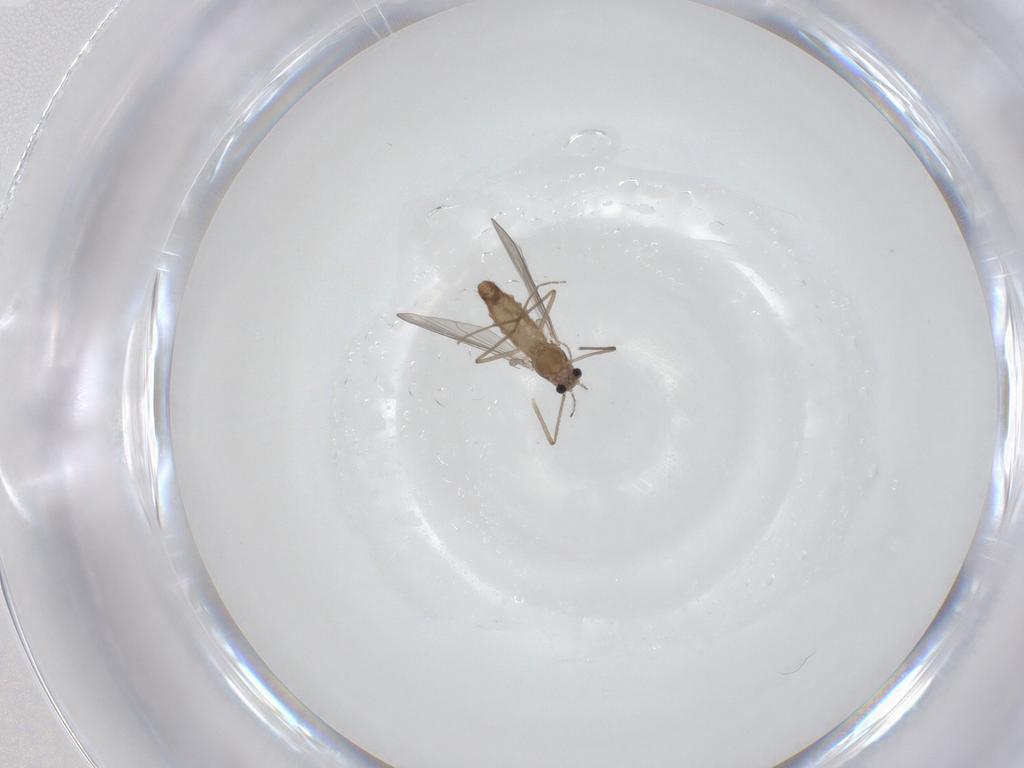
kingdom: Animalia
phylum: Arthropoda
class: Insecta
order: Diptera
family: Chironomidae
